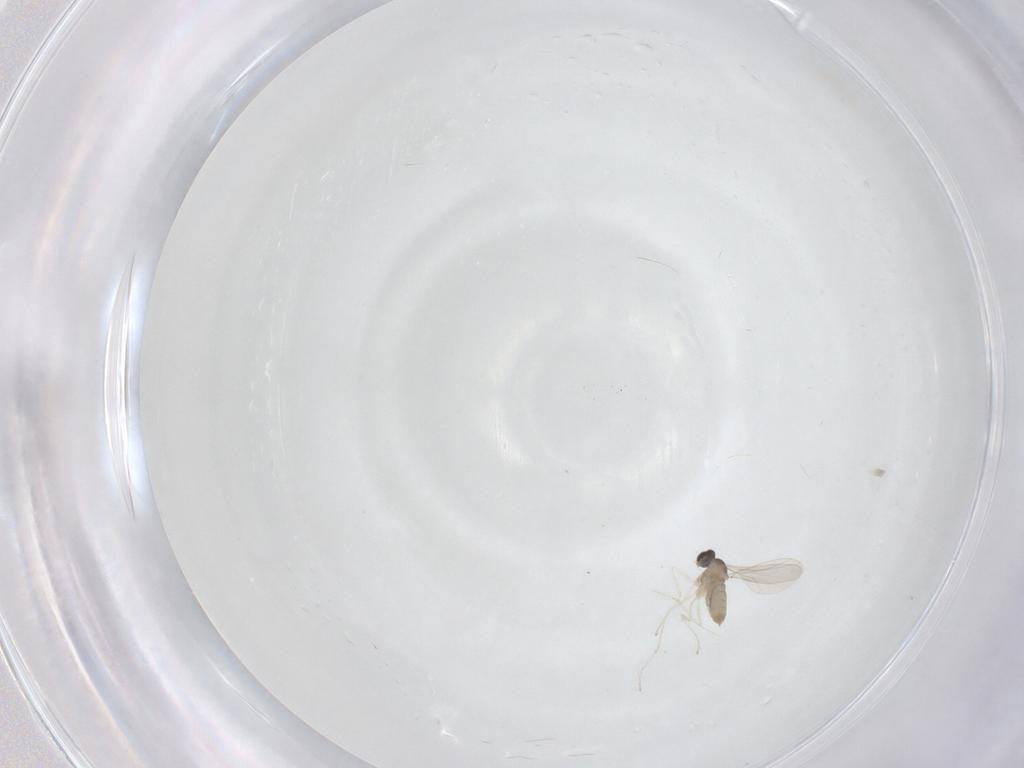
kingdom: Animalia
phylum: Arthropoda
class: Insecta
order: Diptera
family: Cecidomyiidae
